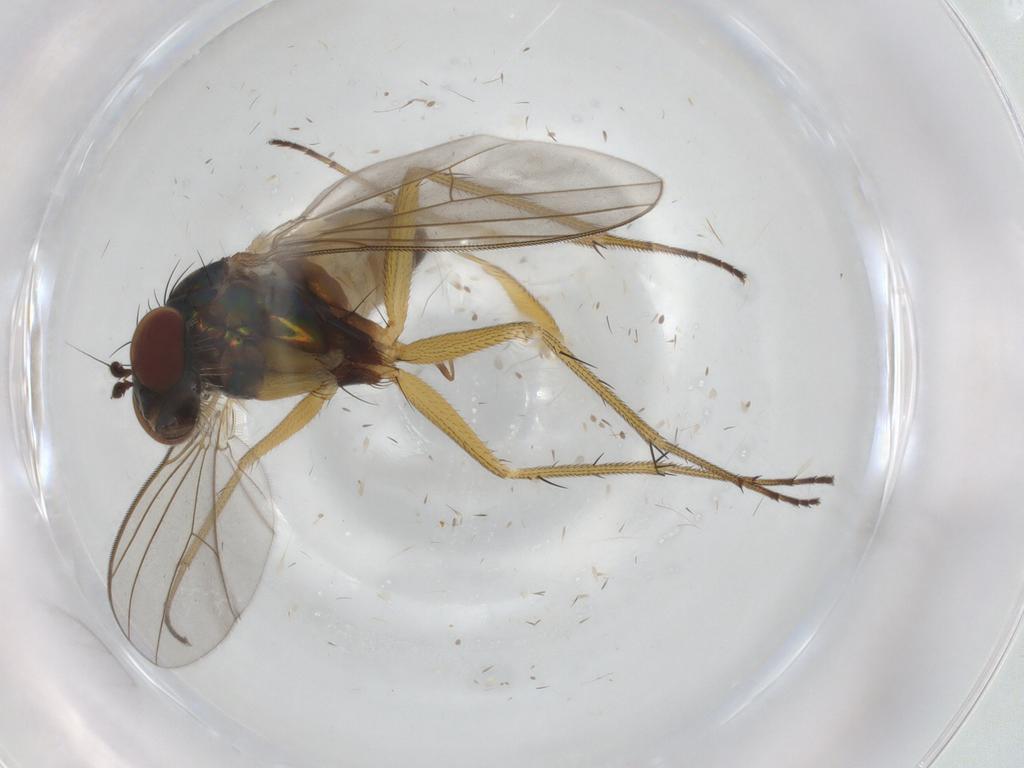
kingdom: Animalia
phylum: Arthropoda
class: Insecta
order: Diptera
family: Dolichopodidae
